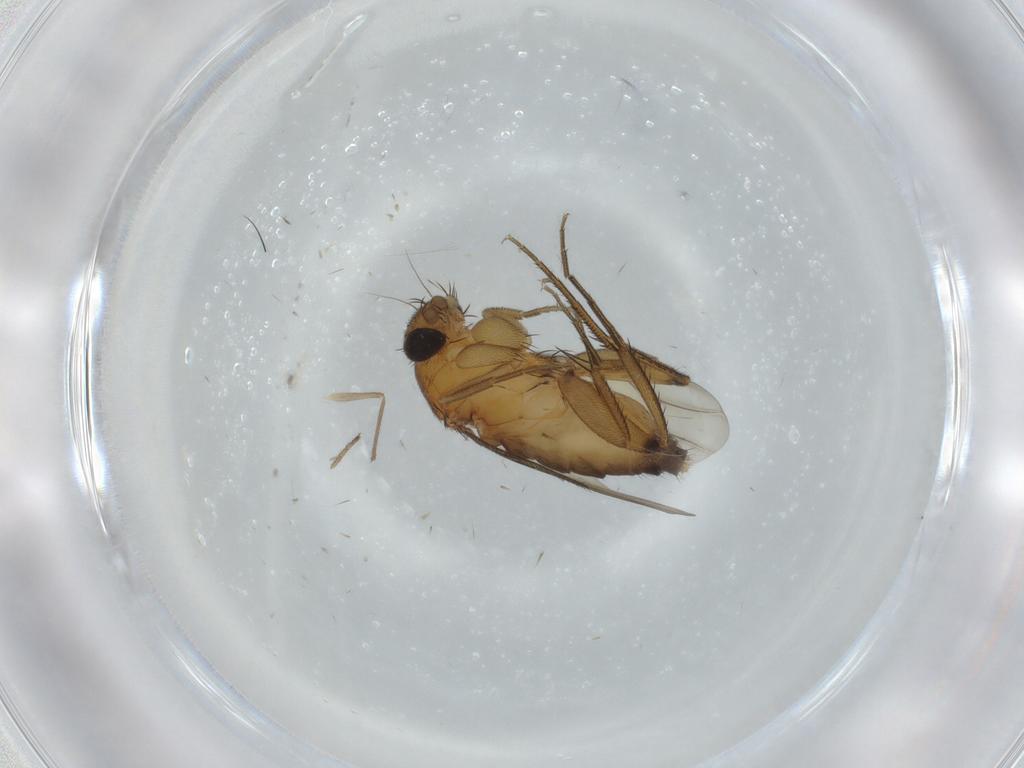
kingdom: Animalia
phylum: Arthropoda
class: Insecta
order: Diptera
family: Phoridae
